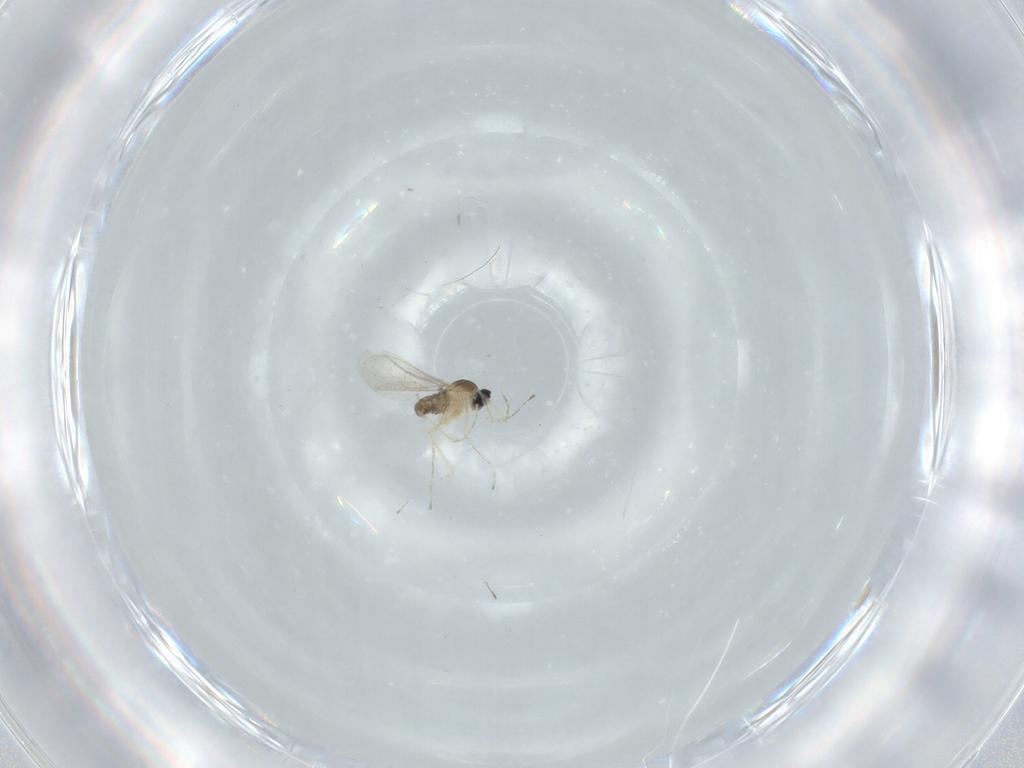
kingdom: Animalia
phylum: Arthropoda
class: Insecta
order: Diptera
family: Cecidomyiidae
